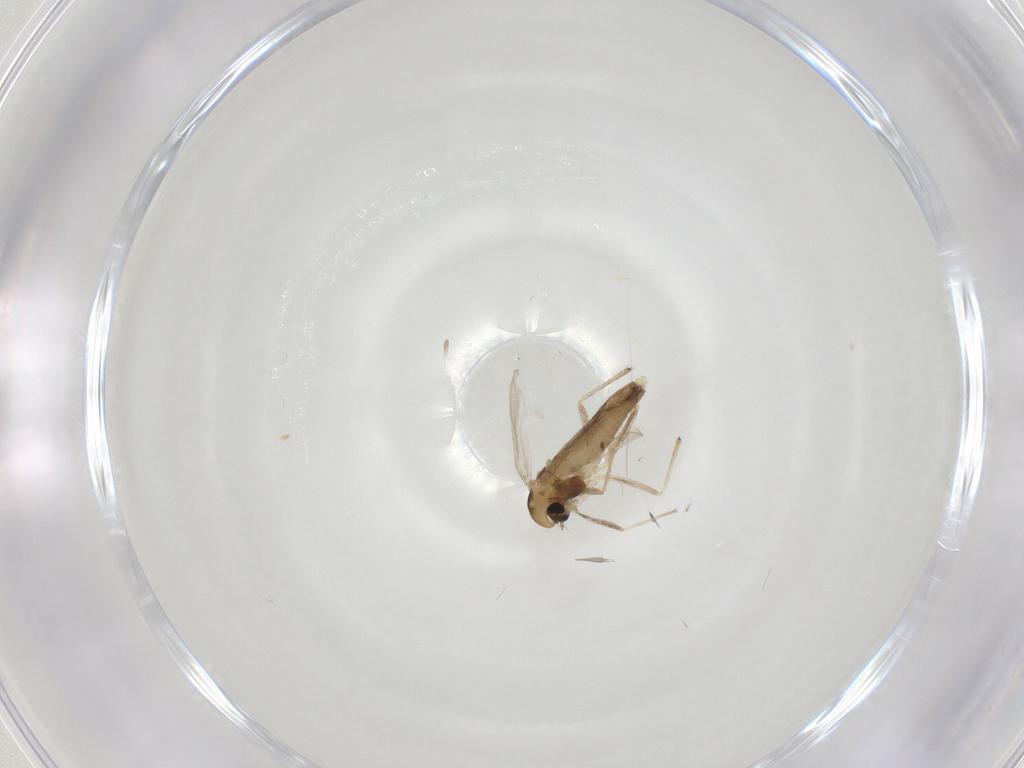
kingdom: Animalia
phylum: Arthropoda
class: Insecta
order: Diptera
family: Chironomidae
